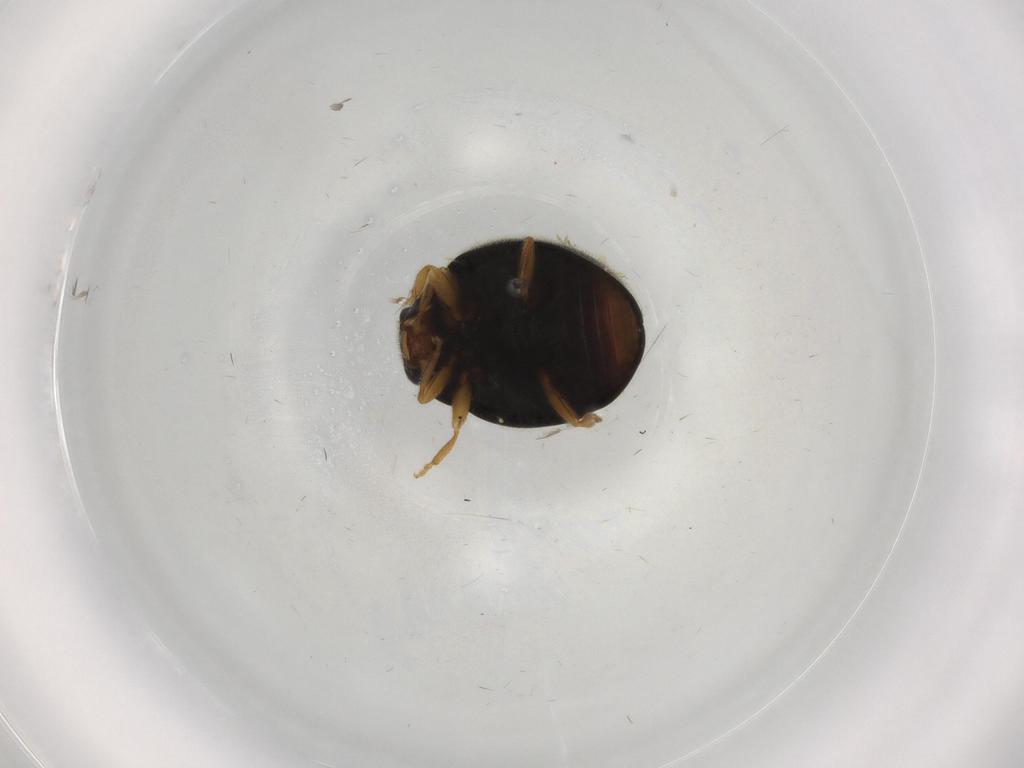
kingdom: Animalia
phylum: Arthropoda
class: Insecta
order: Coleoptera
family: Coccinellidae
